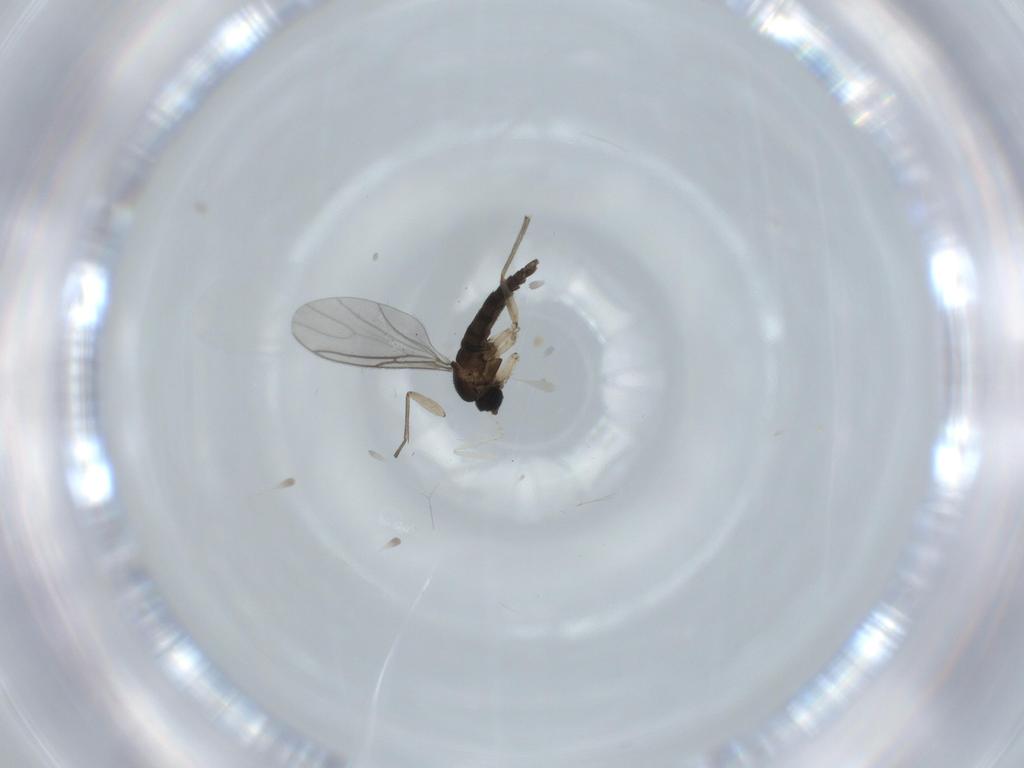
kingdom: Animalia
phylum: Arthropoda
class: Insecta
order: Diptera
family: Sciaridae
